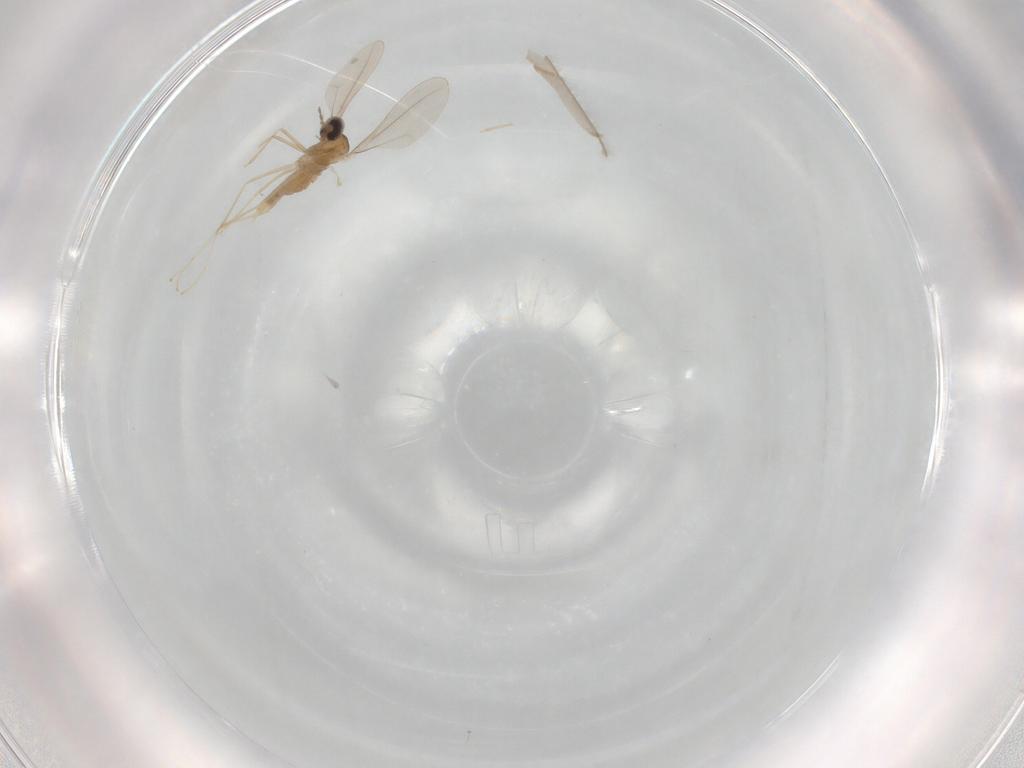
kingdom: Animalia
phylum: Arthropoda
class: Insecta
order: Diptera
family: Cecidomyiidae
